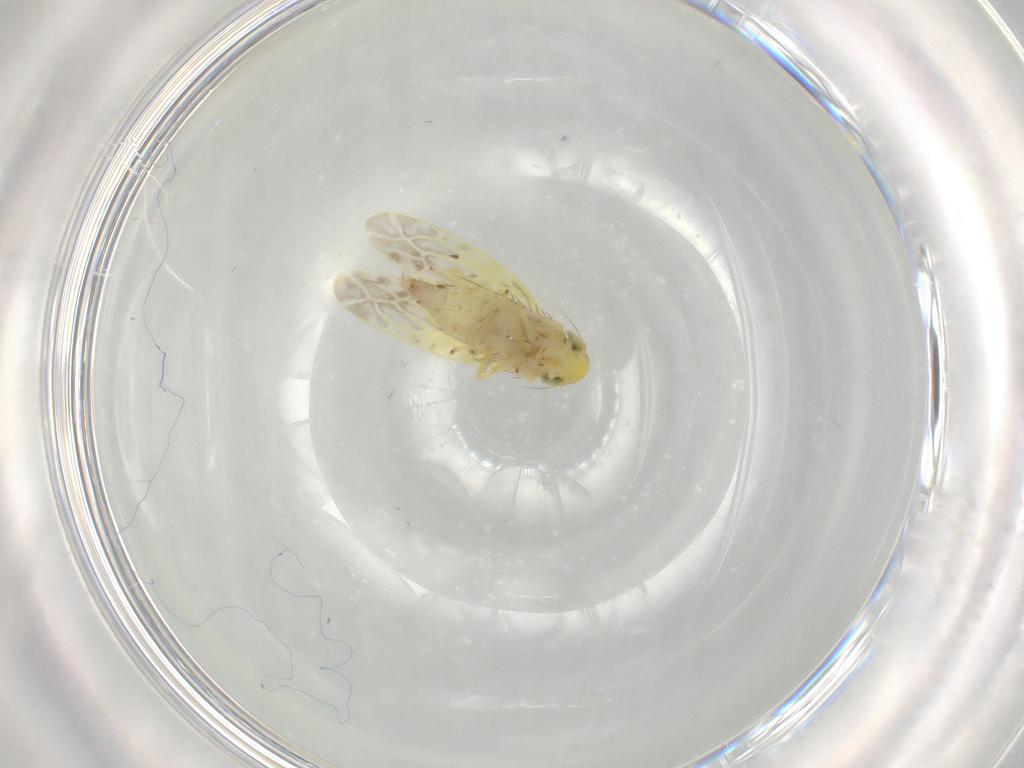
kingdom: Animalia
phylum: Arthropoda
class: Insecta
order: Hemiptera
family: Cicadellidae
